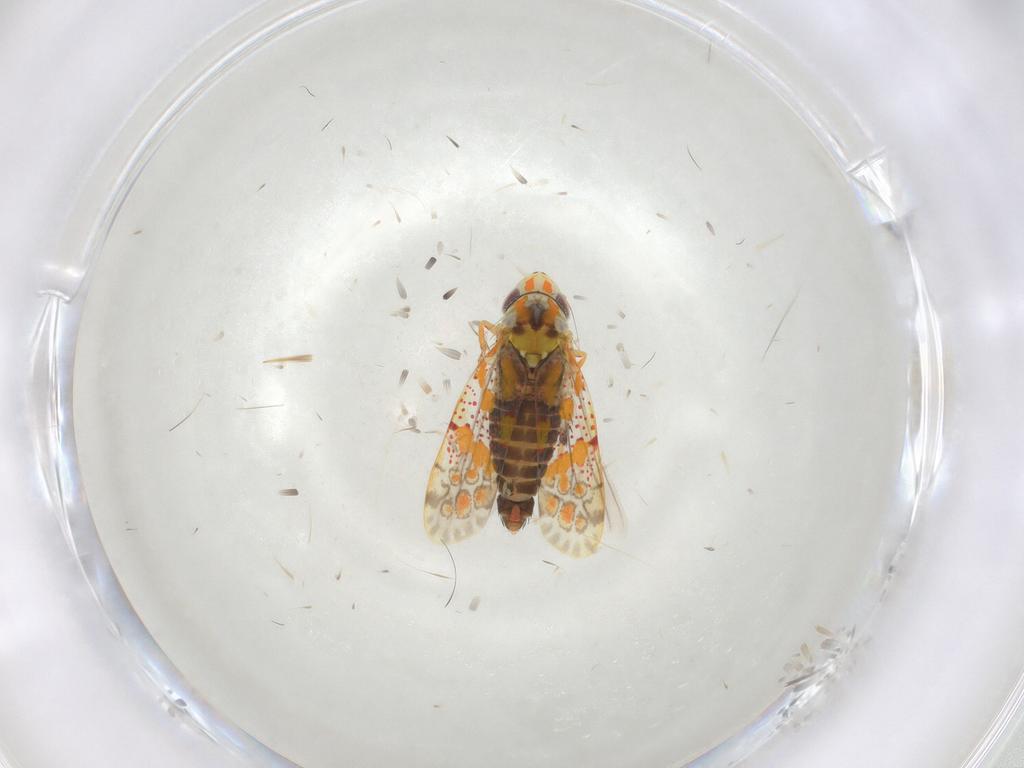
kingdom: Animalia
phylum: Arthropoda
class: Insecta
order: Hemiptera
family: Cicadellidae
